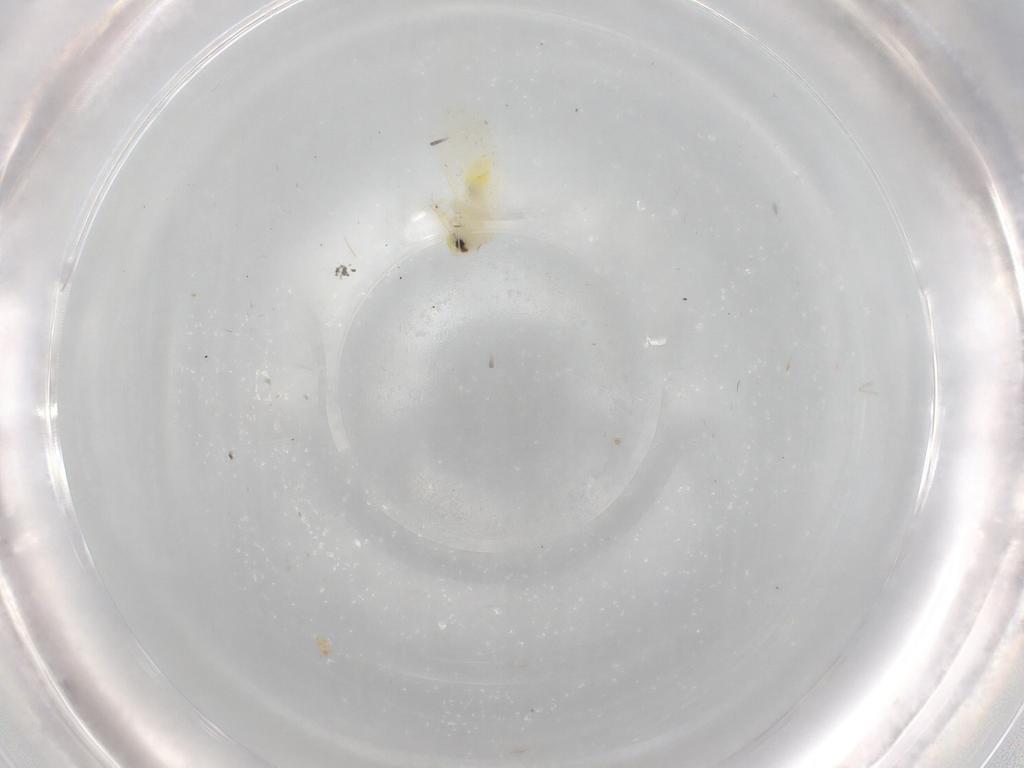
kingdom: Animalia
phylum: Arthropoda
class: Insecta
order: Hemiptera
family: Aleyrodidae
